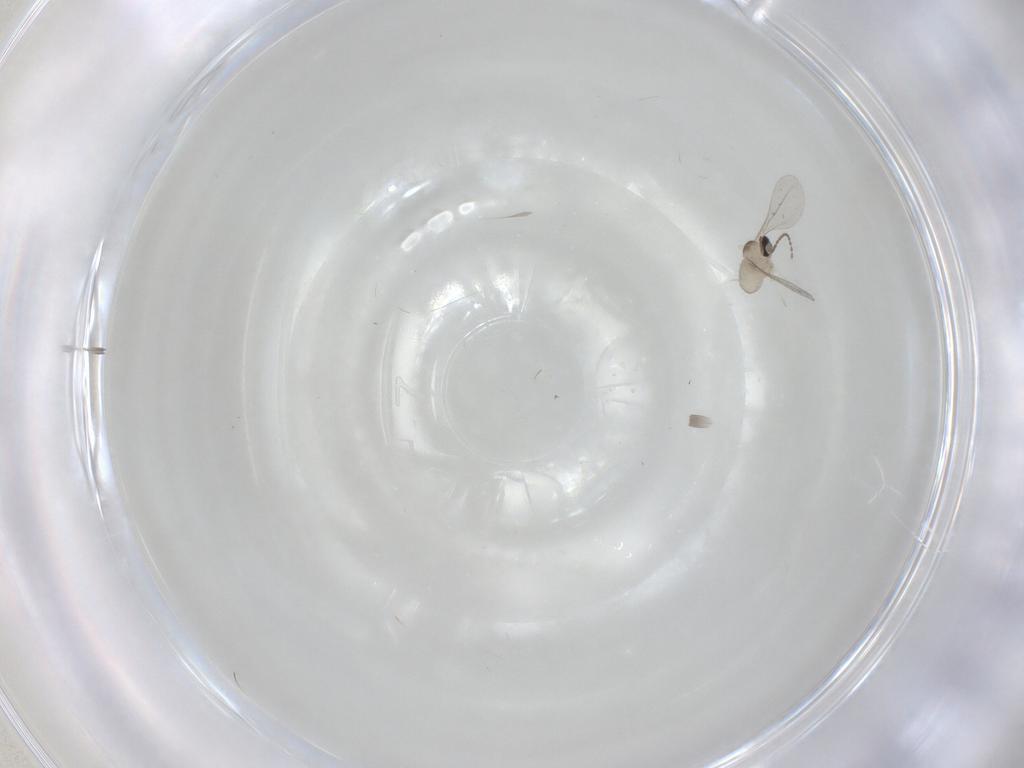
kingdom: Animalia
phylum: Arthropoda
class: Insecta
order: Diptera
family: Cecidomyiidae
